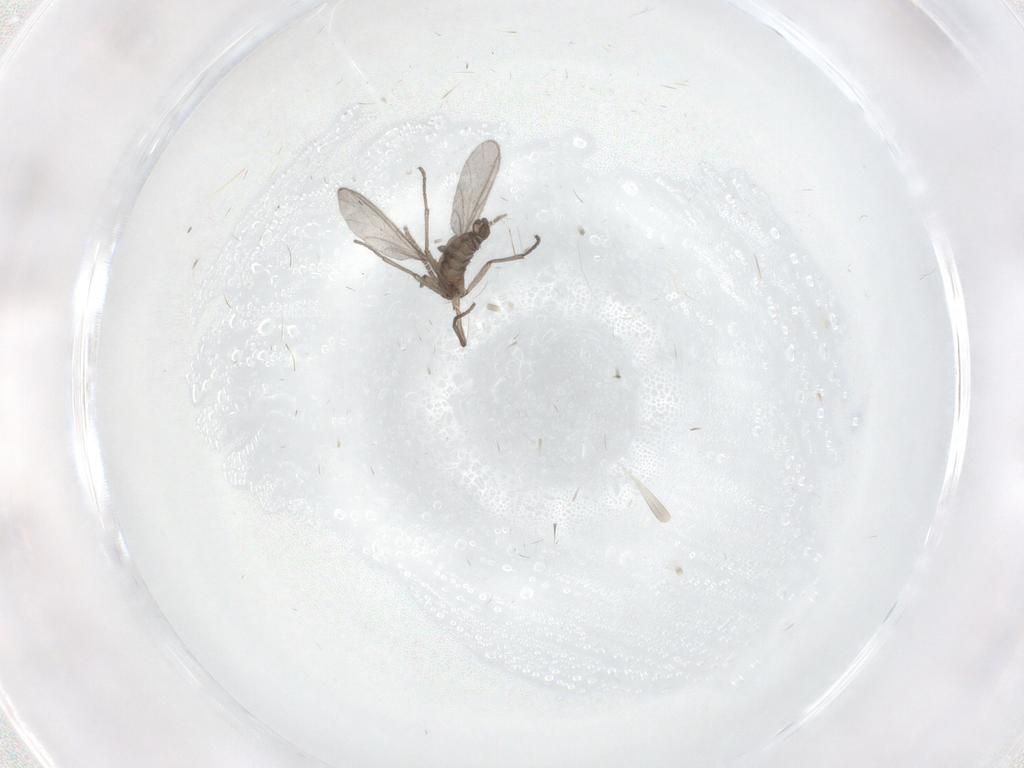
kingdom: Animalia
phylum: Arthropoda
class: Insecta
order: Diptera
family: Sciaridae
